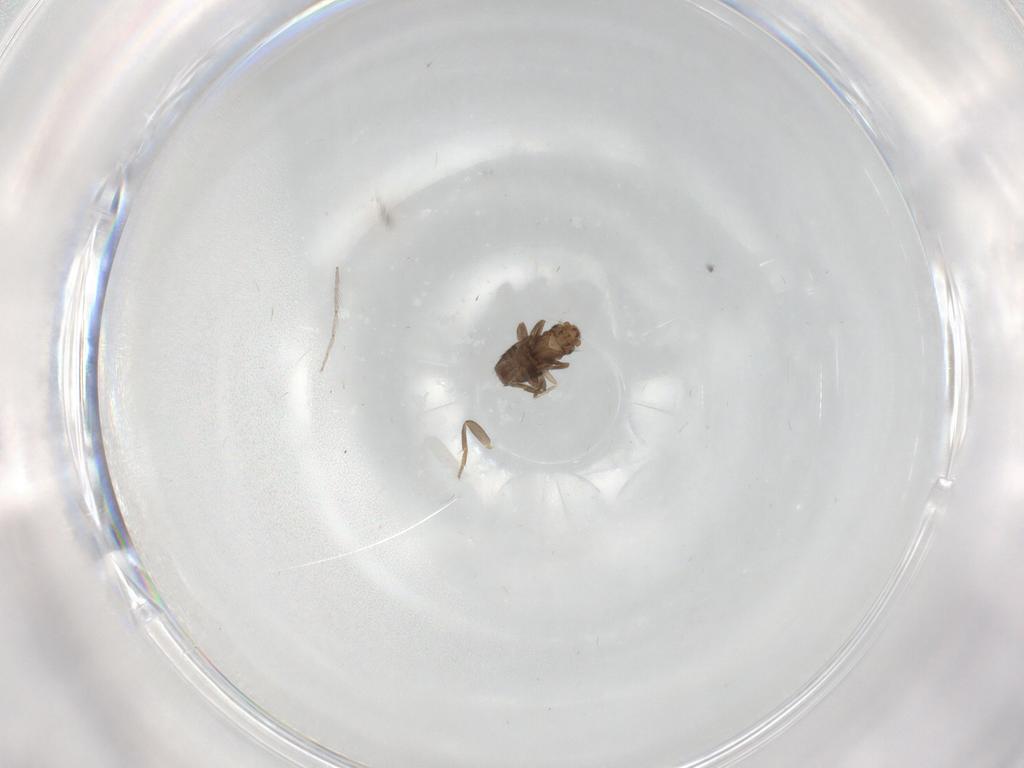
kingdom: Animalia
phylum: Arthropoda
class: Insecta
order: Diptera
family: Chironomidae
